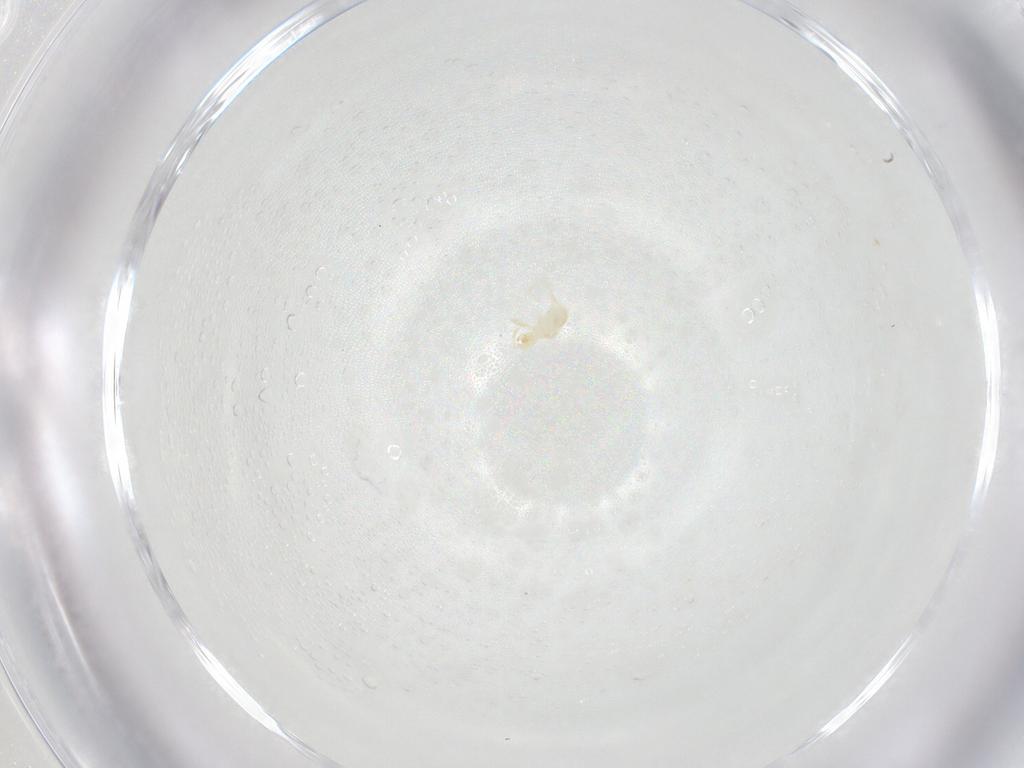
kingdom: Animalia
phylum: Arthropoda
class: Arachnida
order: Trombidiformes
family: Erythraeidae
